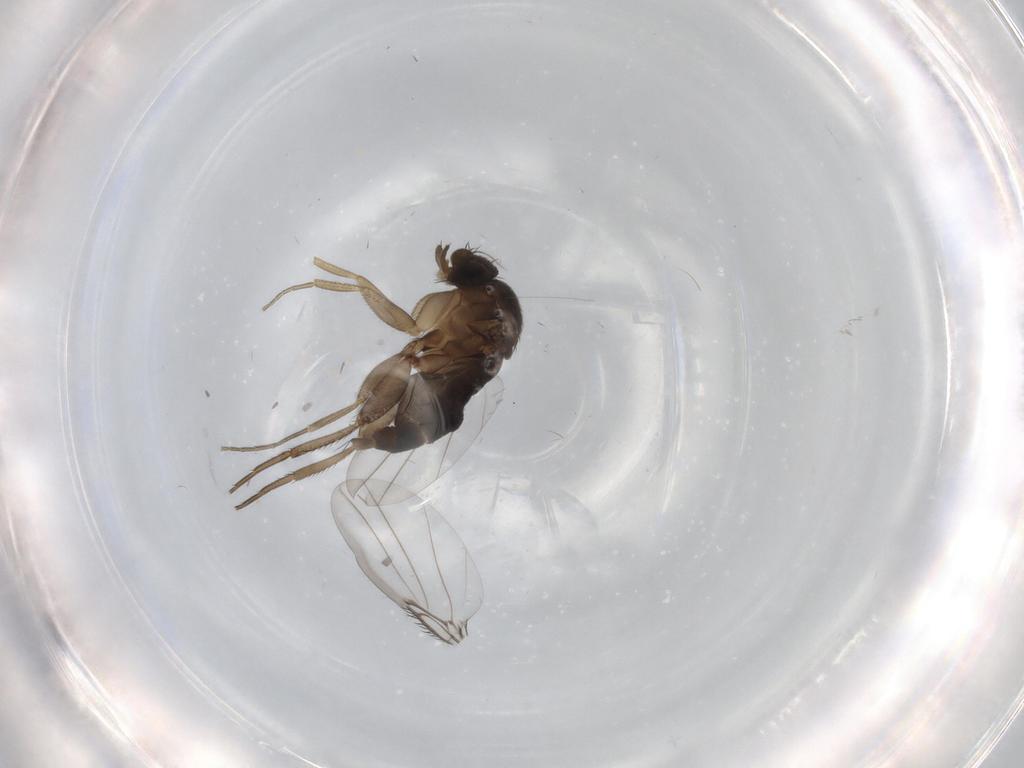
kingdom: Animalia
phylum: Arthropoda
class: Insecta
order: Diptera
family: Phoridae
